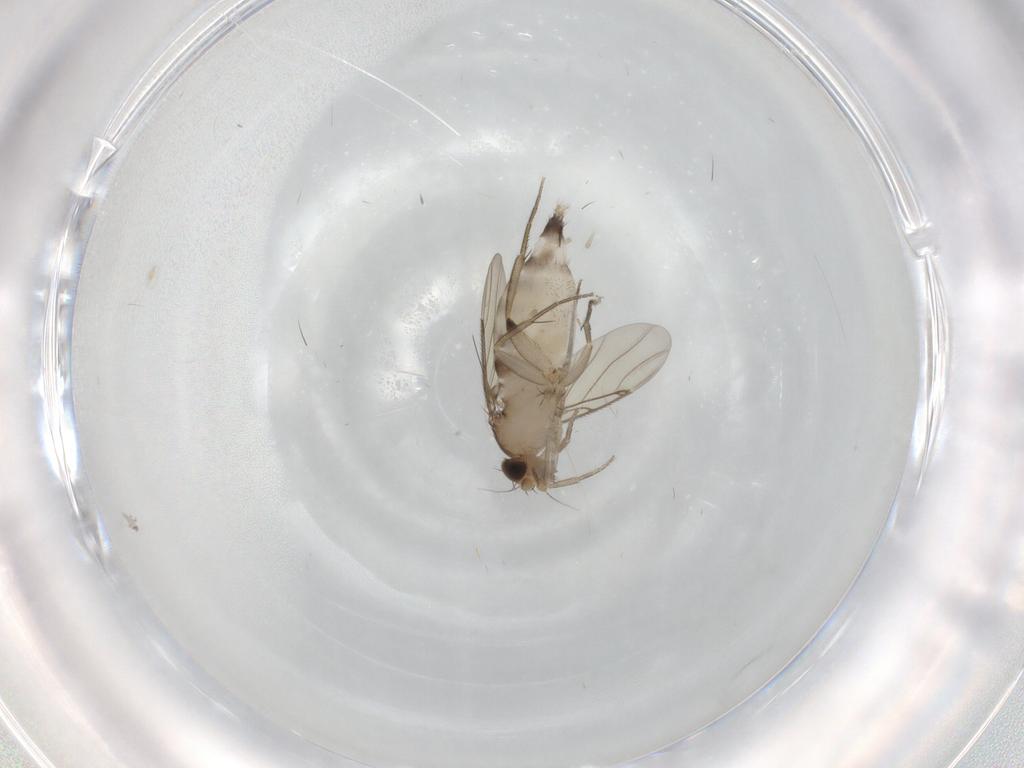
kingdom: Animalia
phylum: Arthropoda
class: Insecta
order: Diptera
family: Phoridae
